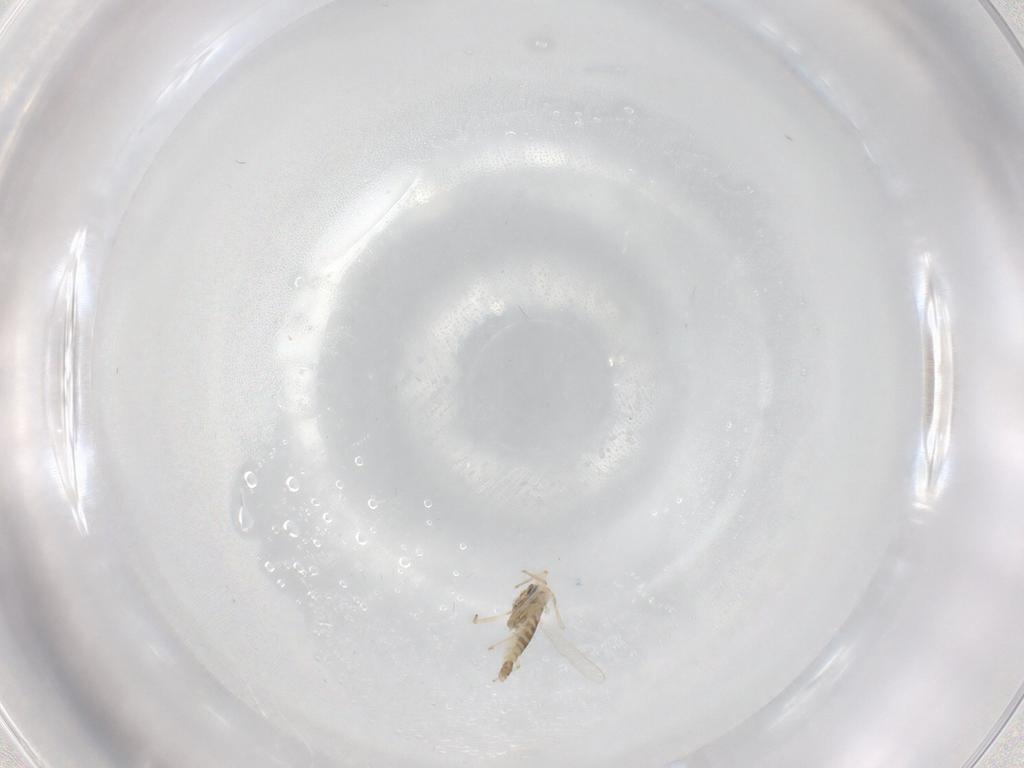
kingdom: Animalia
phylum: Arthropoda
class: Insecta
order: Diptera
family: Chironomidae
